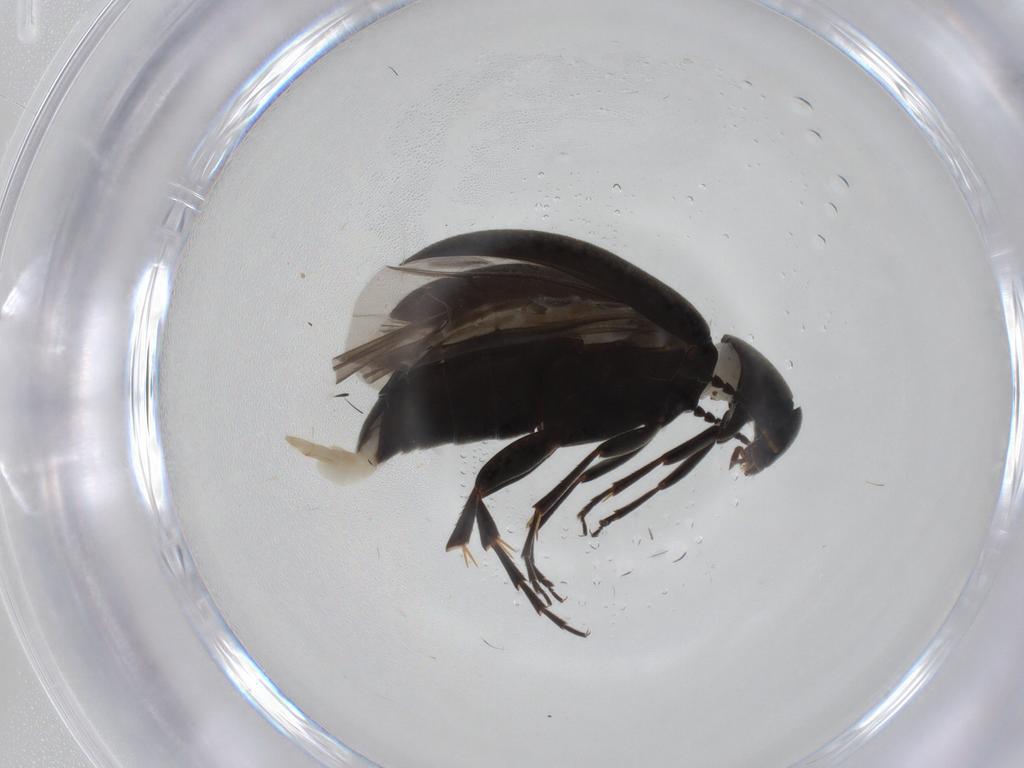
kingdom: Animalia
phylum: Arthropoda
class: Insecta
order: Coleoptera
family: Scraptiidae
